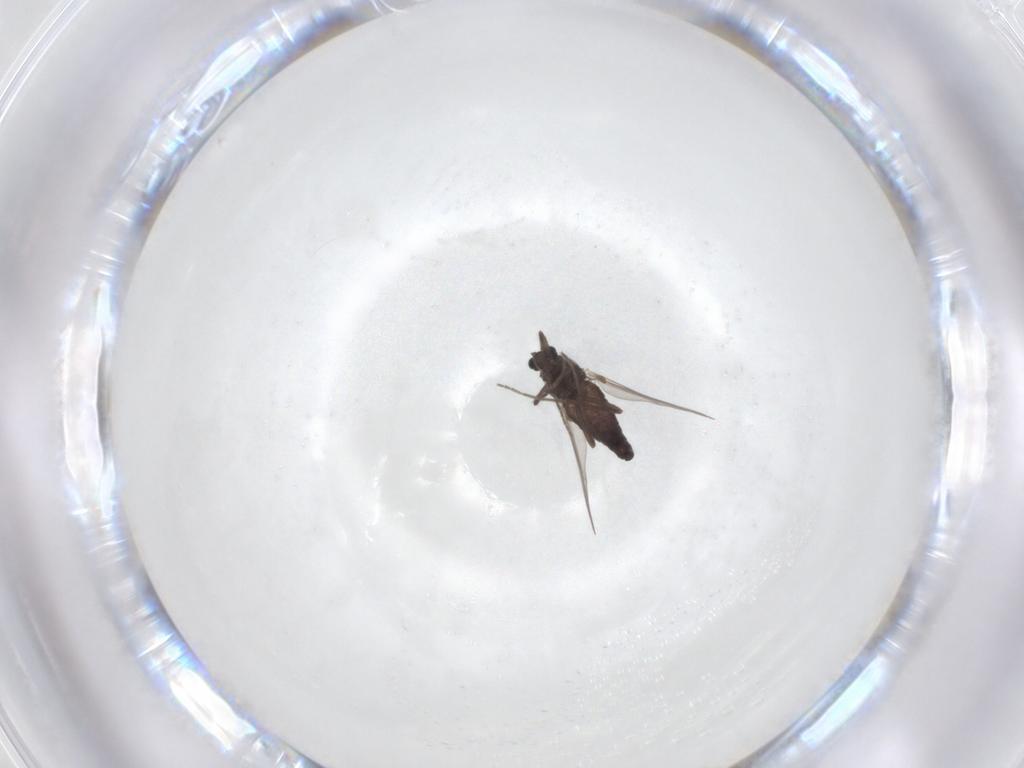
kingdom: Animalia
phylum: Arthropoda
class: Insecta
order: Diptera
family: Chironomidae
